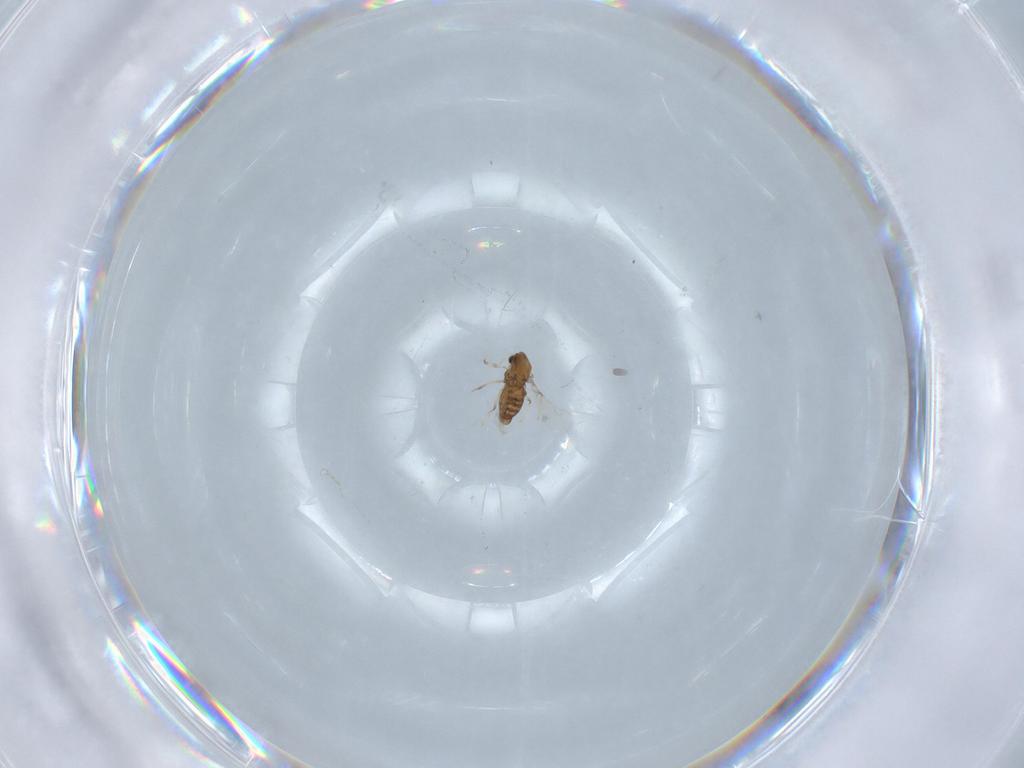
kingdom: Animalia
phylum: Arthropoda
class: Insecta
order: Diptera
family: Chironomidae
